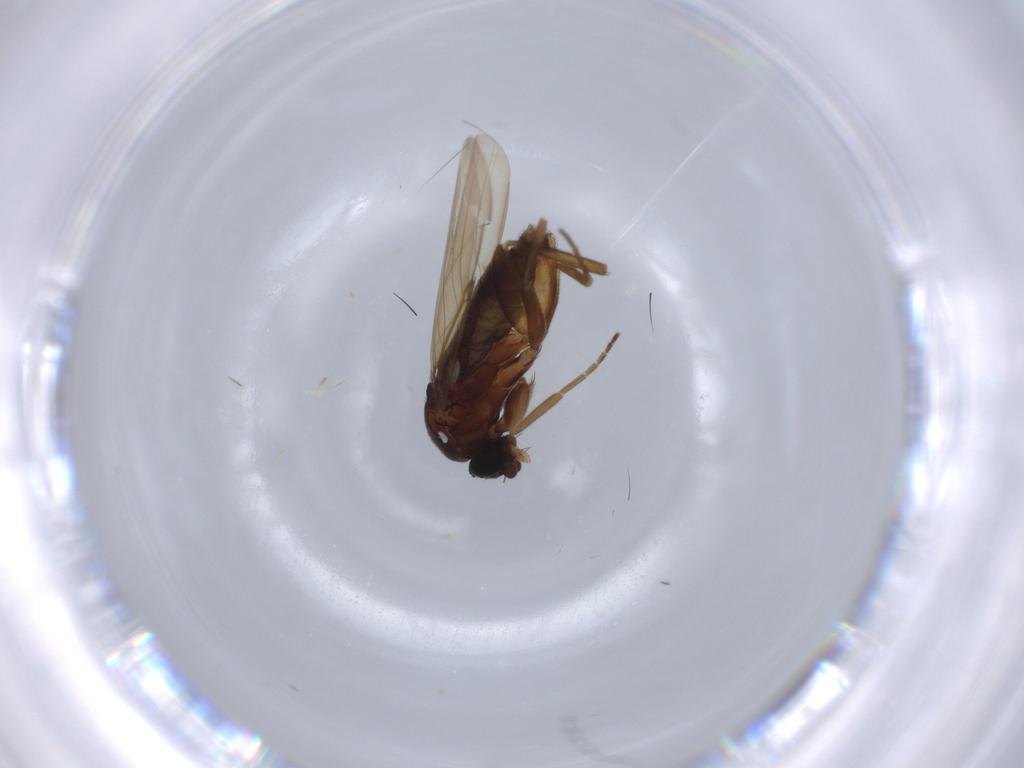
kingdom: Animalia
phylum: Arthropoda
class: Insecta
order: Diptera
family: Phoridae
